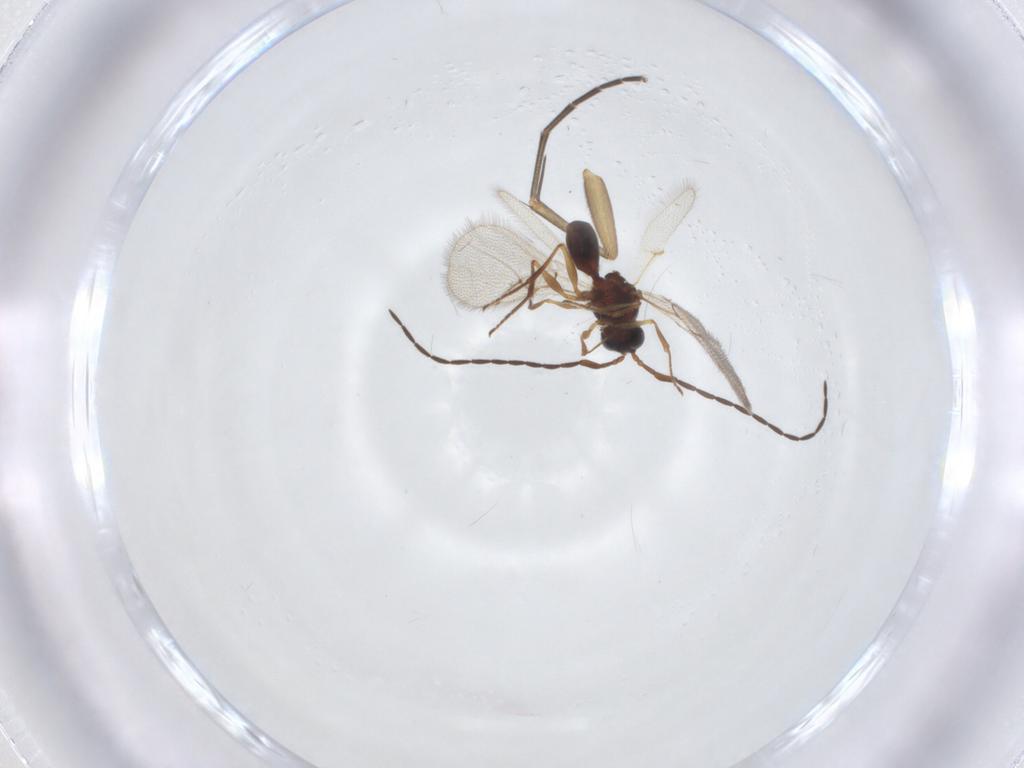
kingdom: Animalia
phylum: Arthropoda
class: Insecta
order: Hymenoptera
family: Figitidae
